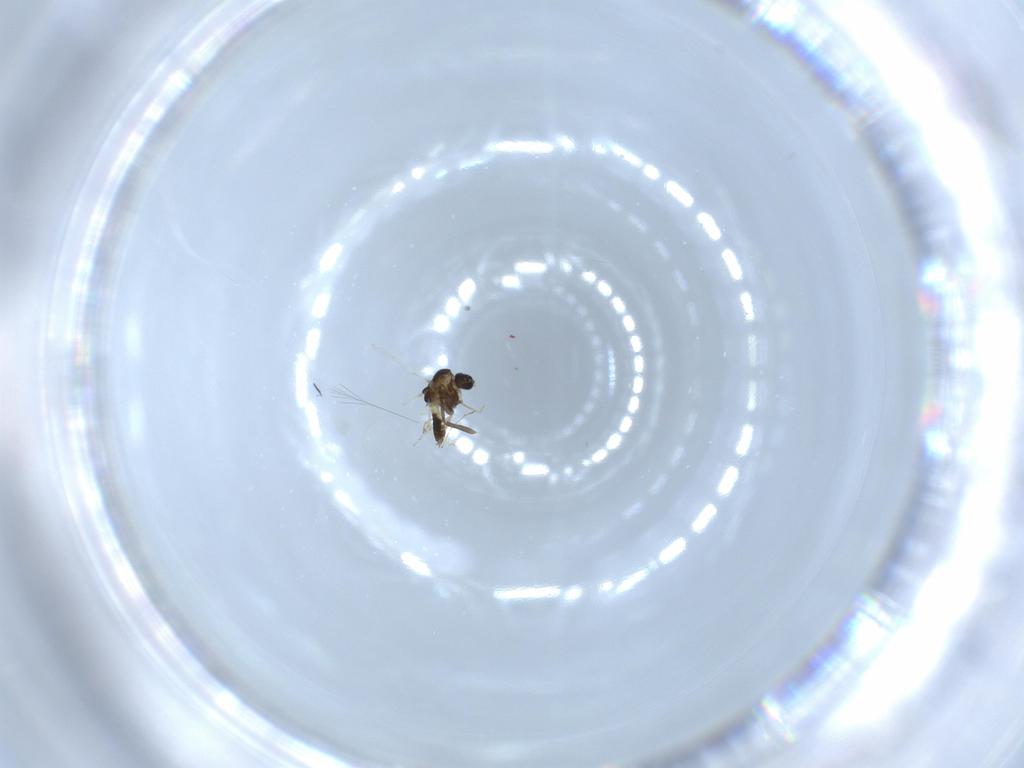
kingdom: Animalia
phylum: Arthropoda
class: Insecta
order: Diptera
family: Chironomidae
